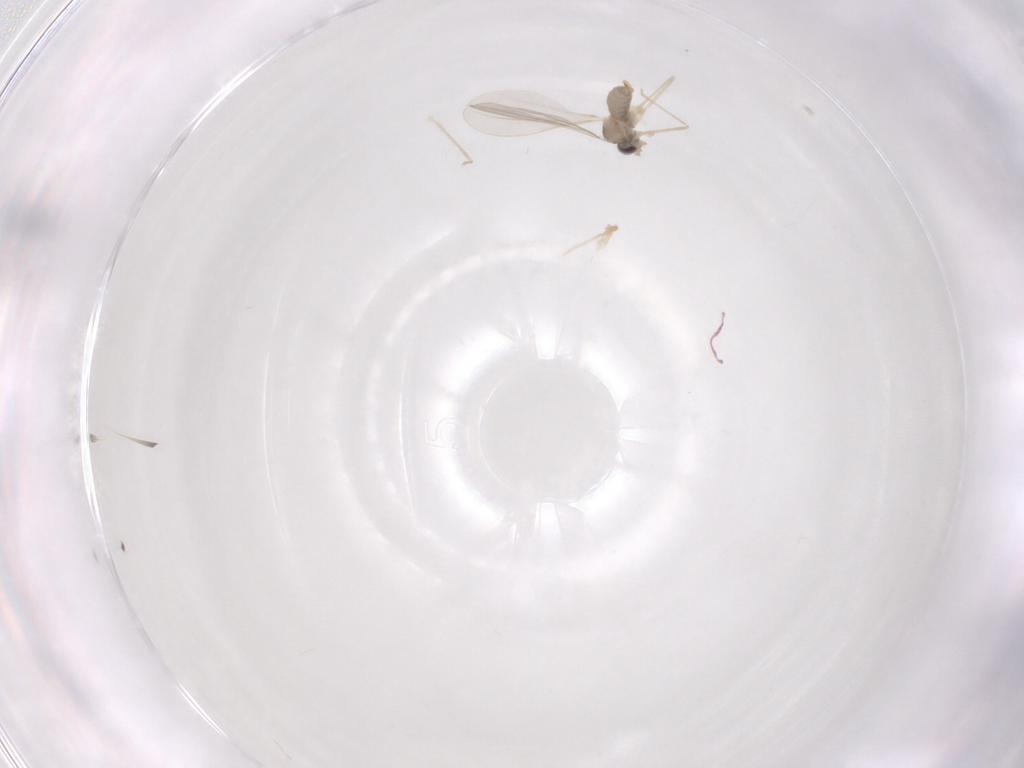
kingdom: Animalia
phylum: Arthropoda
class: Insecta
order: Diptera
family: Cecidomyiidae
